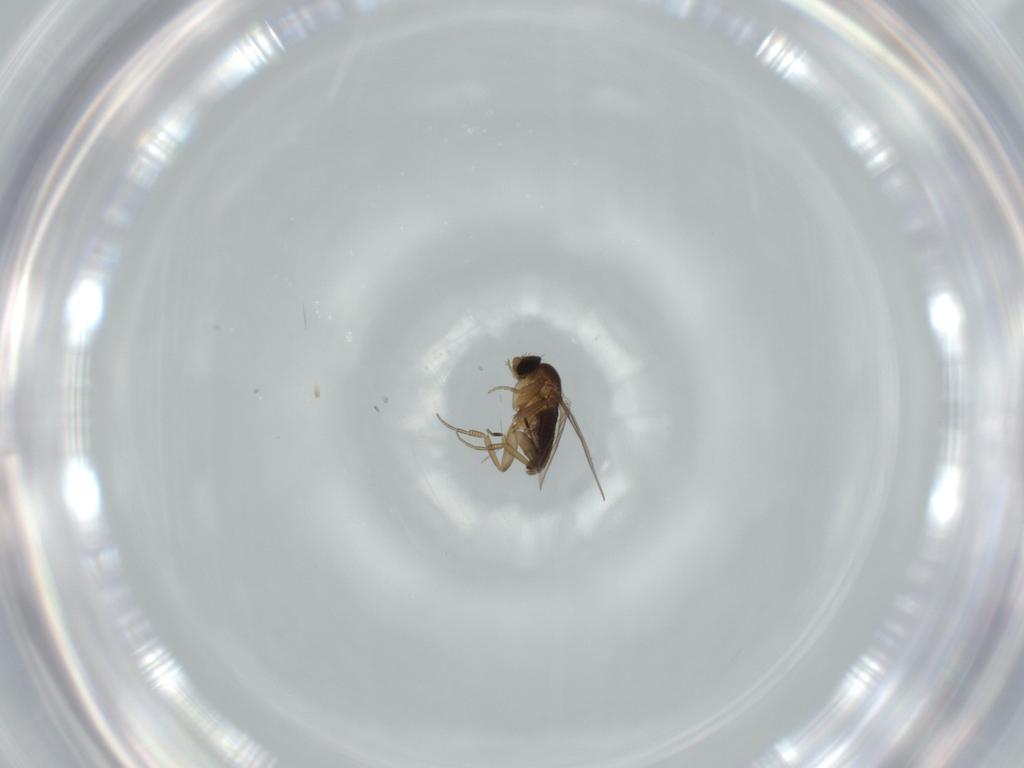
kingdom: Animalia
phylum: Arthropoda
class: Insecta
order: Diptera
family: Phoridae
